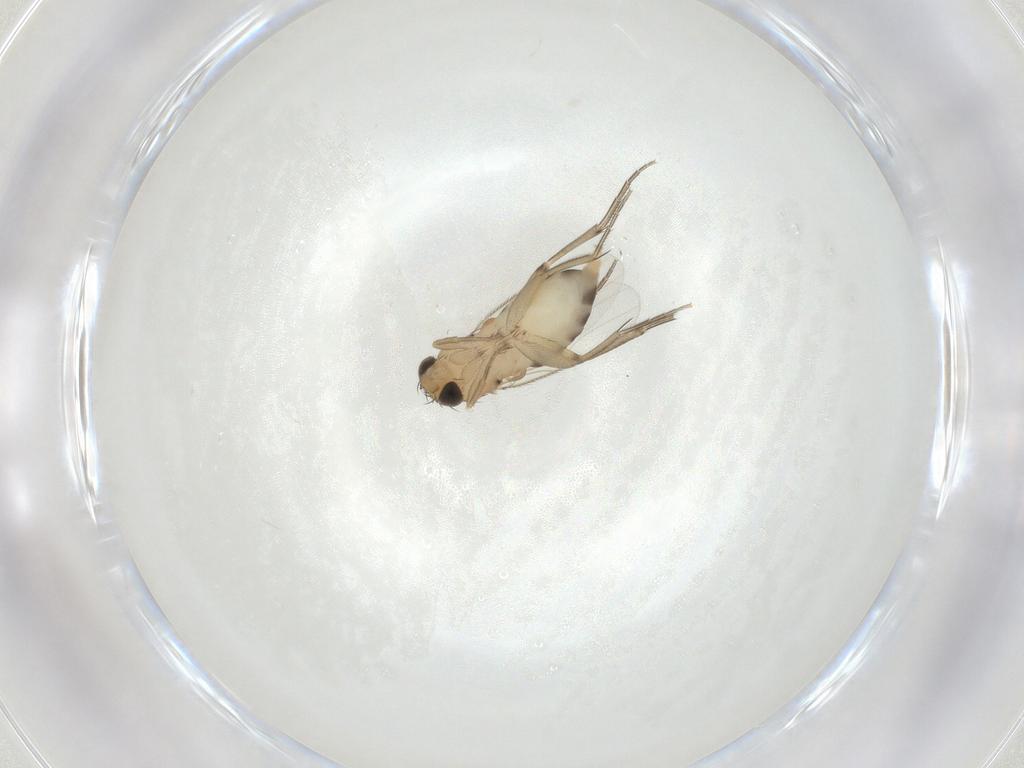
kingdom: Animalia
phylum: Arthropoda
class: Insecta
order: Diptera
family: Phoridae
